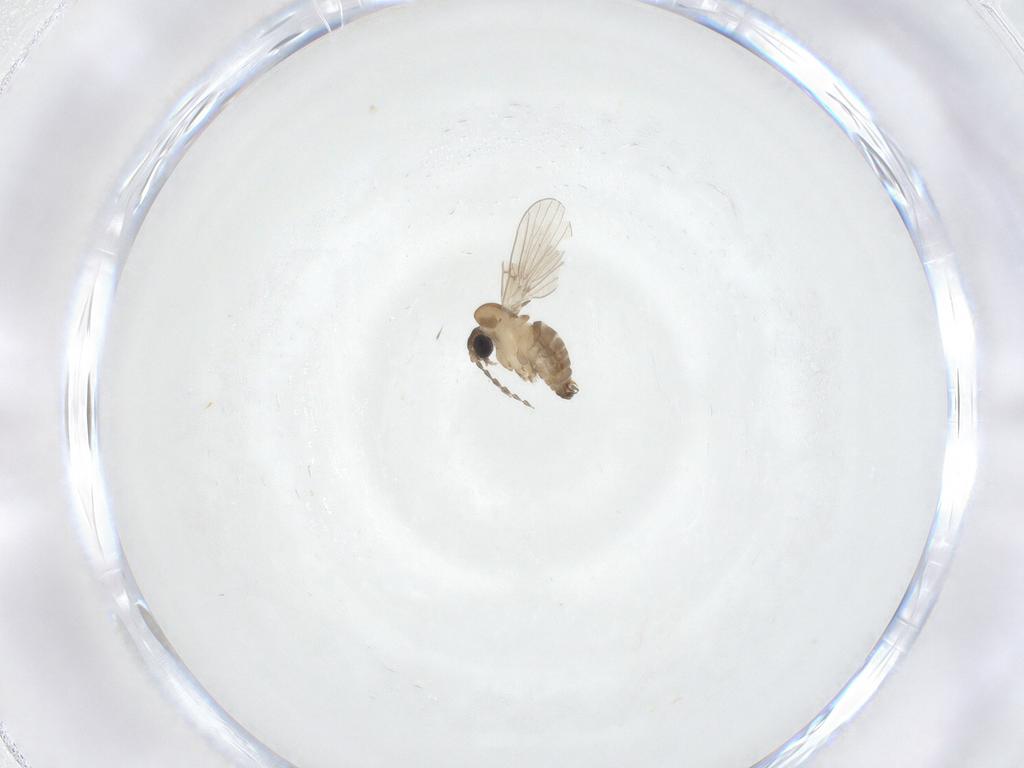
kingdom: Animalia
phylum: Arthropoda
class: Insecta
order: Diptera
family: Psychodidae
